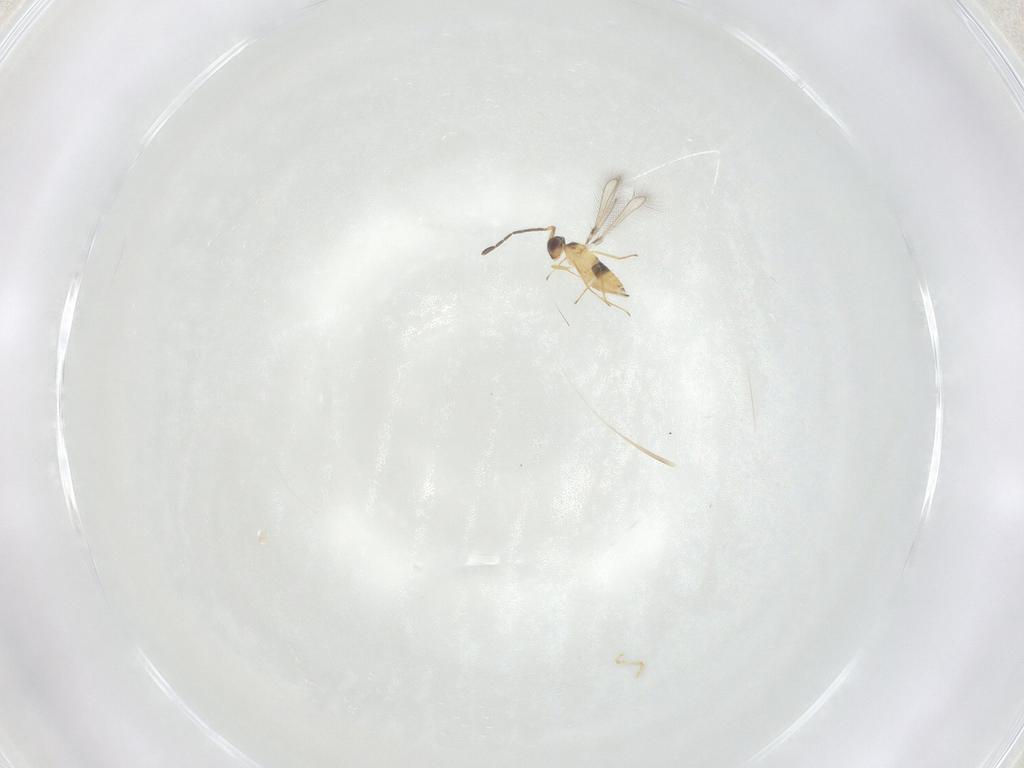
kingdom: Animalia
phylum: Arthropoda
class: Insecta
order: Hymenoptera
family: Mymaridae
